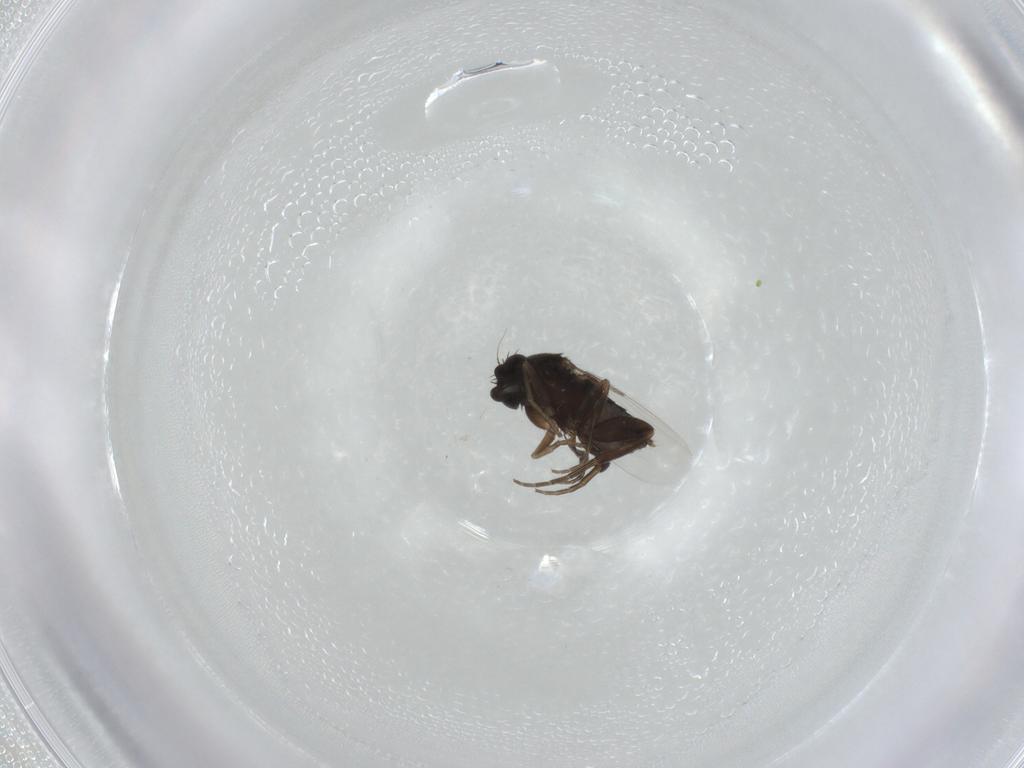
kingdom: Animalia
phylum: Arthropoda
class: Insecta
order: Diptera
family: Phoridae
